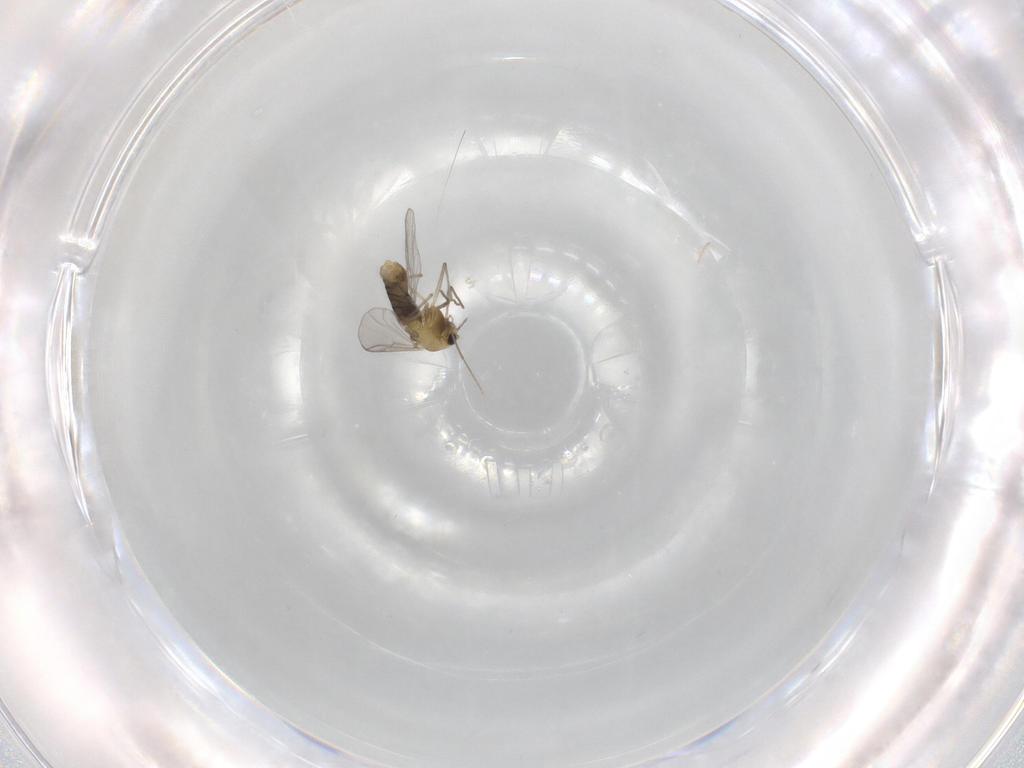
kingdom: Animalia
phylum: Arthropoda
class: Insecta
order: Diptera
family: Chironomidae
